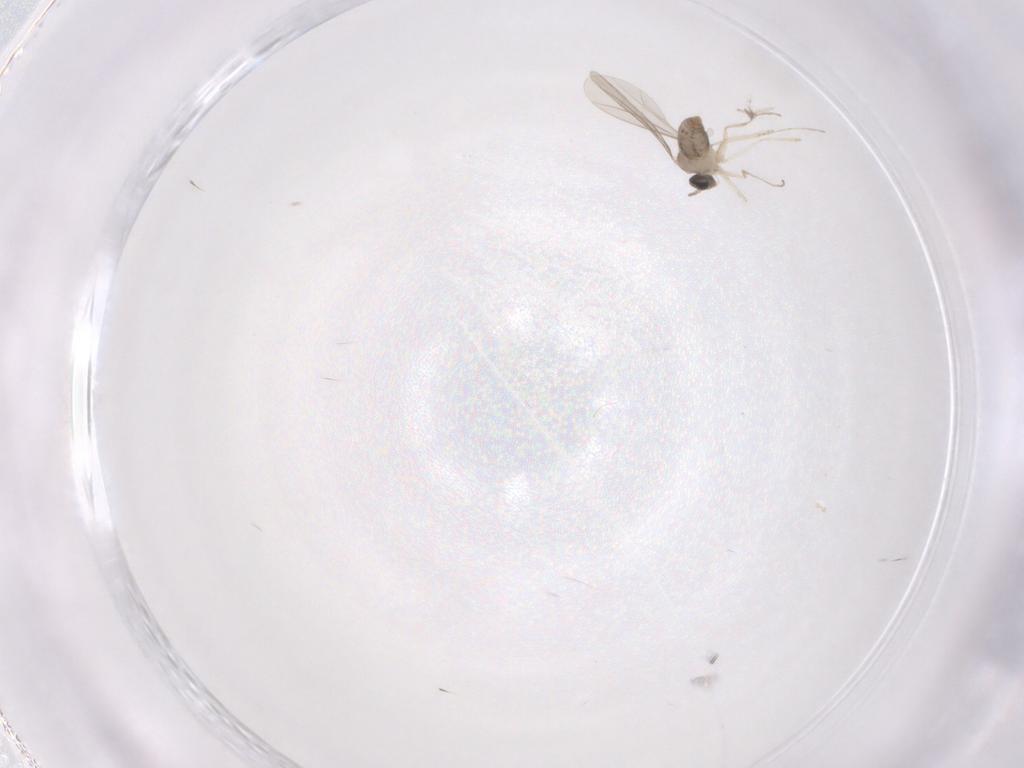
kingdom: Animalia
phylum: Arthropoda
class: Insecta
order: Diptera
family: Cecidomyiidae
